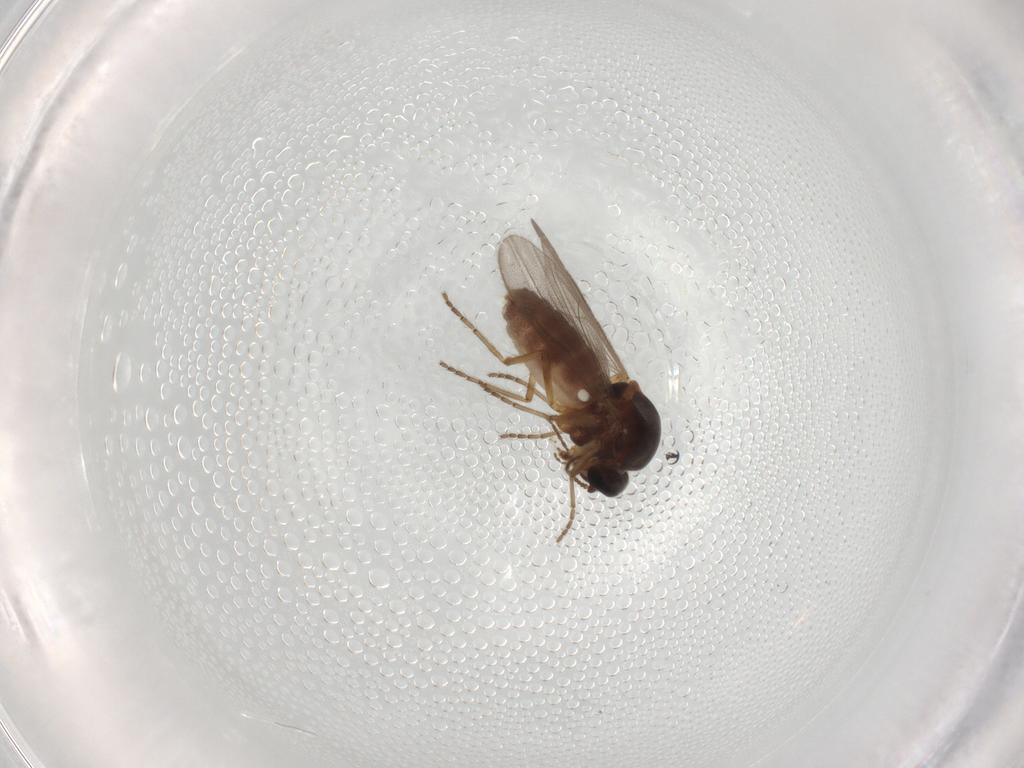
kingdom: Animalia
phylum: Arthropoda
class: Insecta
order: Diptera
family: Ceratopogonidae
